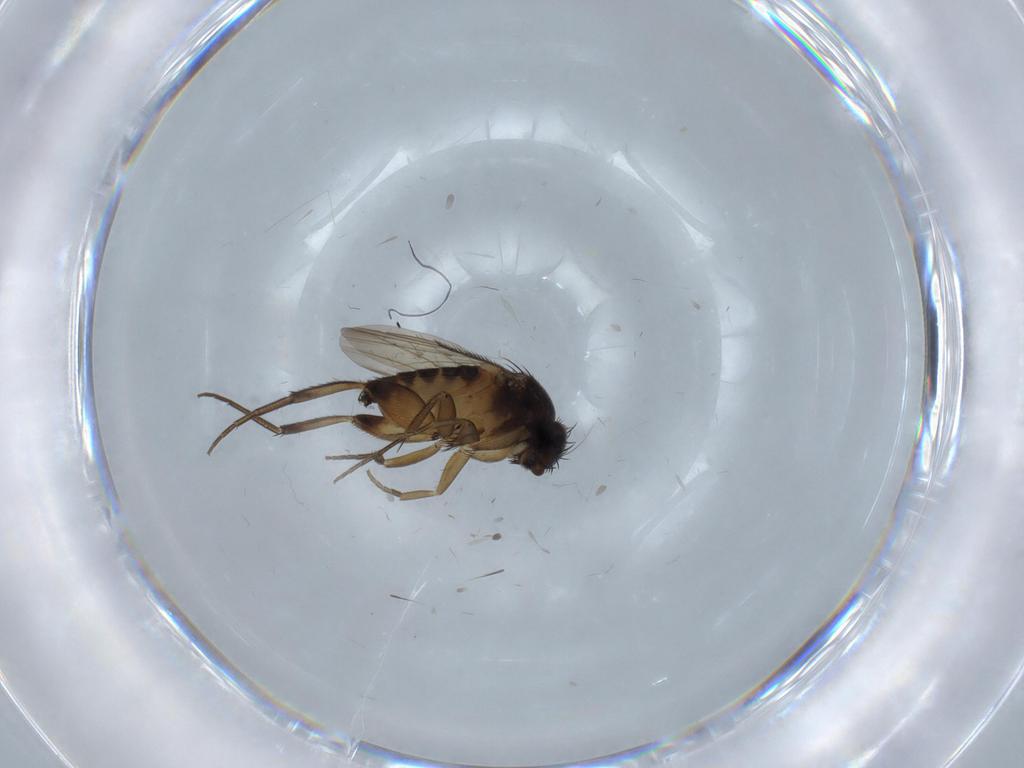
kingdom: Animalia
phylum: Arthropoda
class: Insecta
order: Diptera
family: Phoridae
